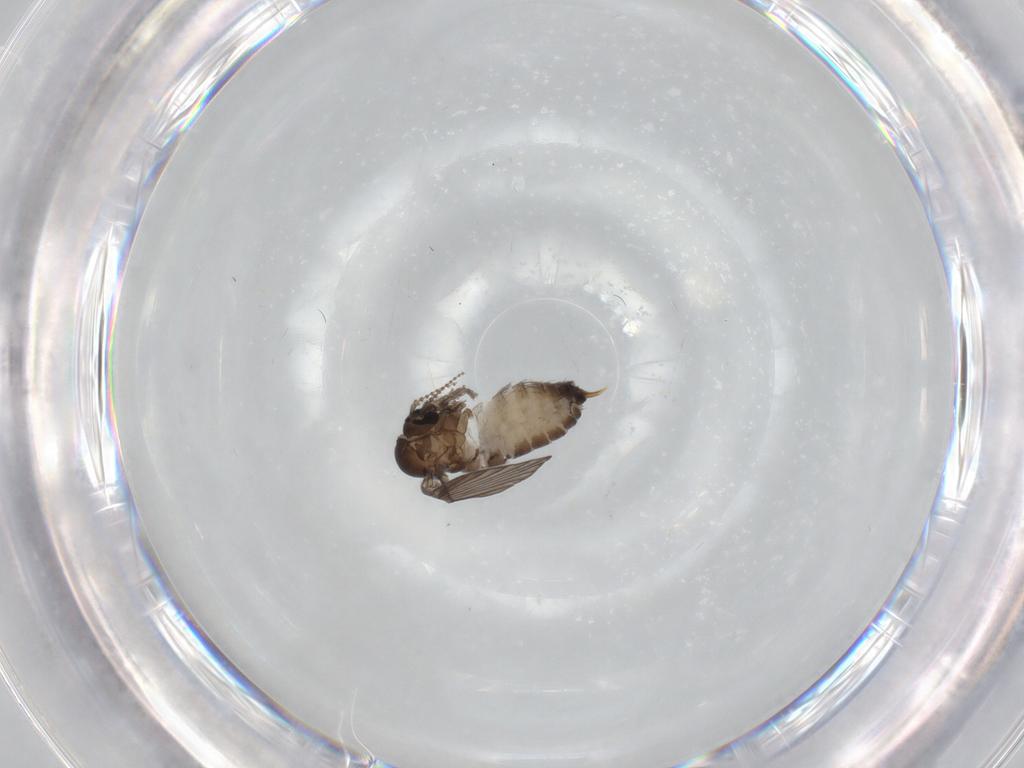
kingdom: Animalia
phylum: Arthropoda
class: Insecta
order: Diptera
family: Psychodidae
